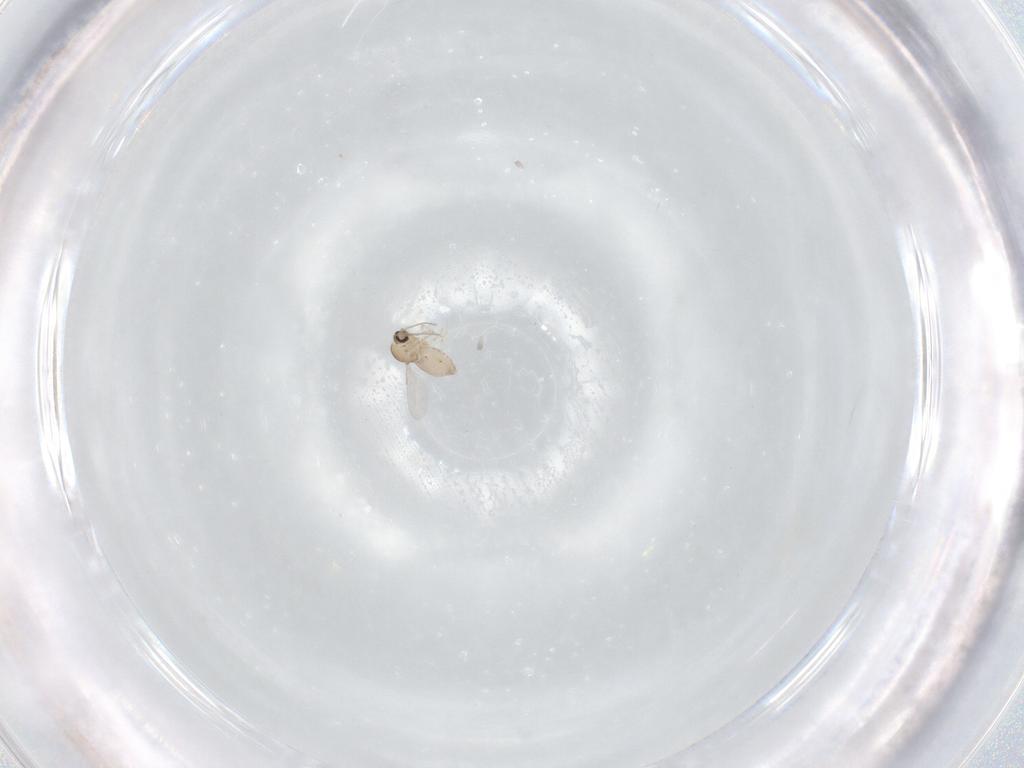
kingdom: Animalia
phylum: Arthropoda
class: Insecta
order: Diptera
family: Ceratopogonidae
